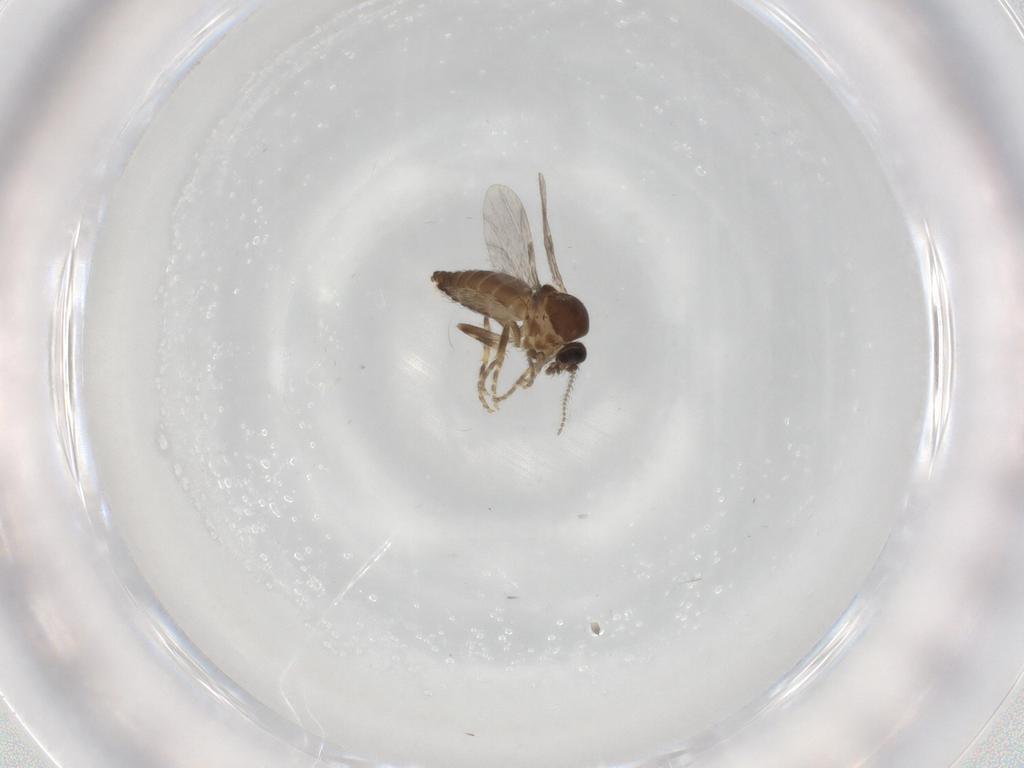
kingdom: Animalia
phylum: Arthropoda
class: Insecta
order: Diptera
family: Ceratopogonidae
